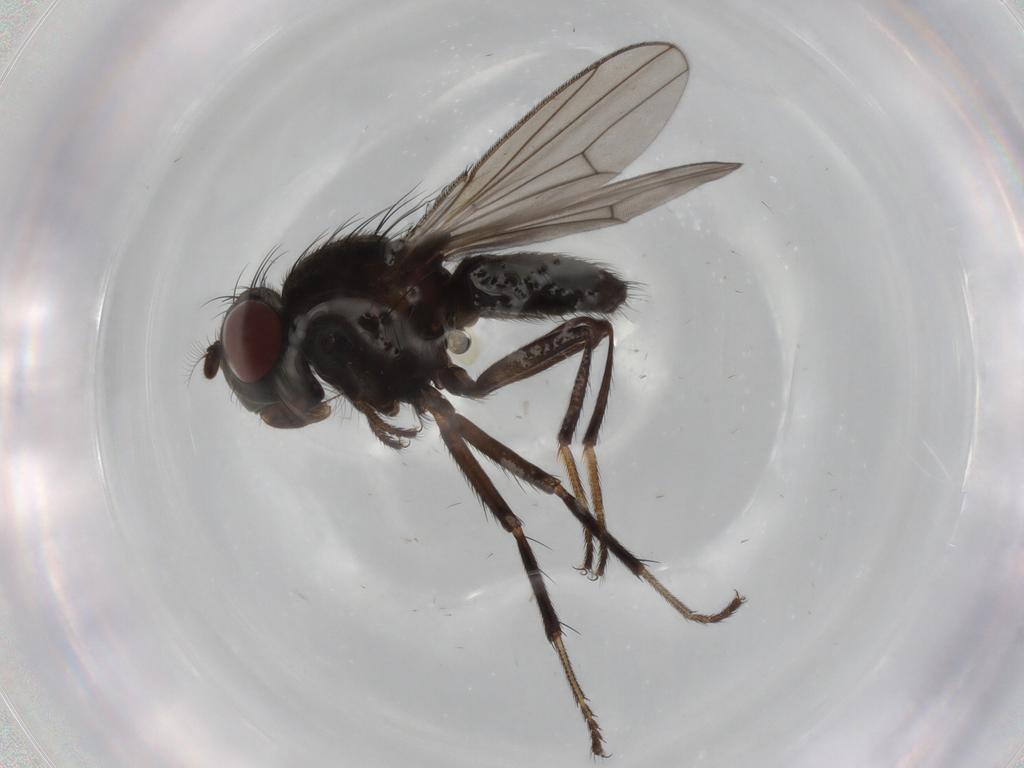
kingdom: Animalia
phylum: Arthropoda
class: Insecta
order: Diptera
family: Ephydridae
